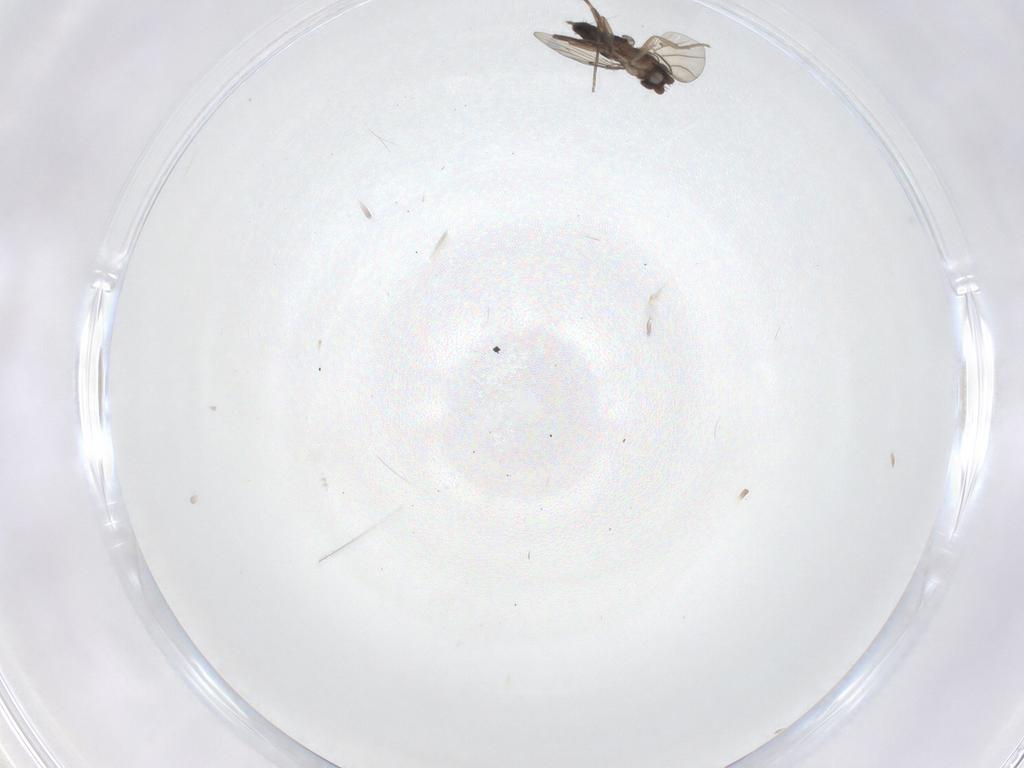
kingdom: Animalia
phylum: Arthropoda
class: Insecta
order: Diptera
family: Phoridae
